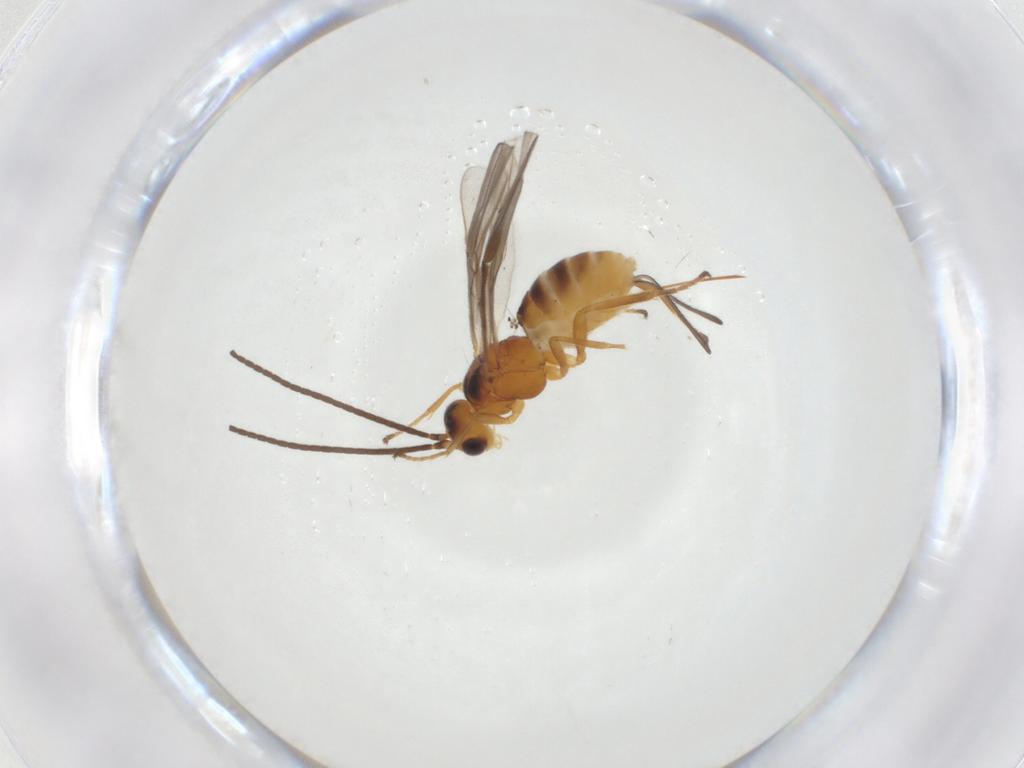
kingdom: Animalia
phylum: Arthropoda
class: Insecta
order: Hymenoptera
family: Braconidae
